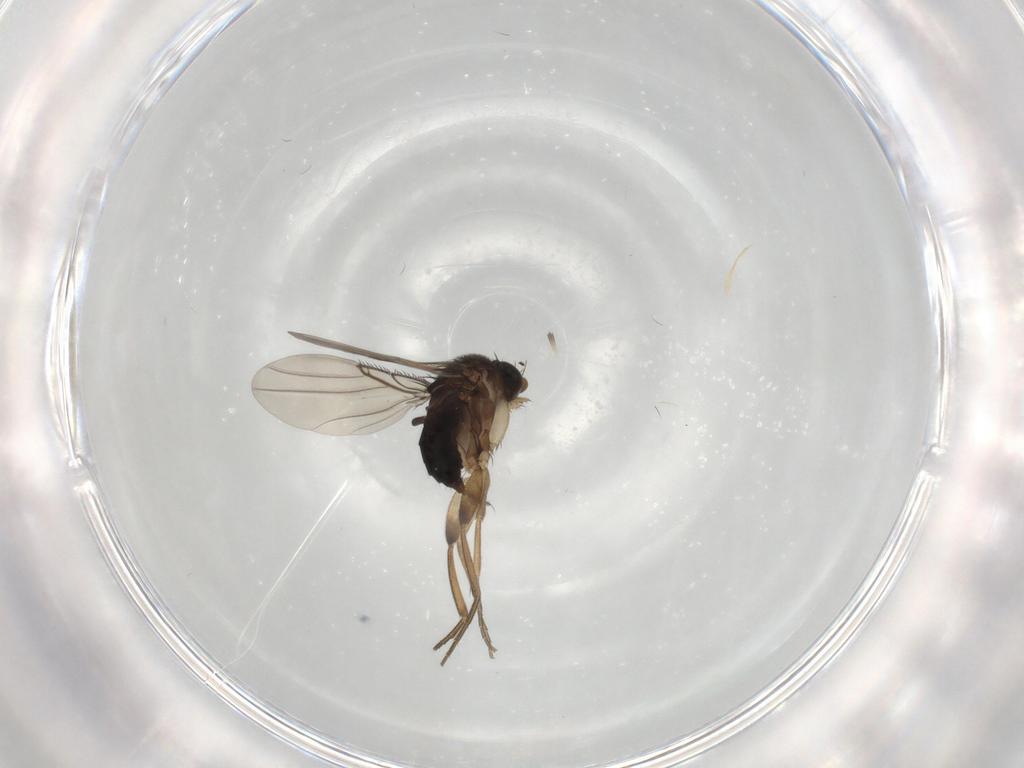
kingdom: Animalia
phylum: Arthropoda
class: Insecta
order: Diptera
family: Phoridae
